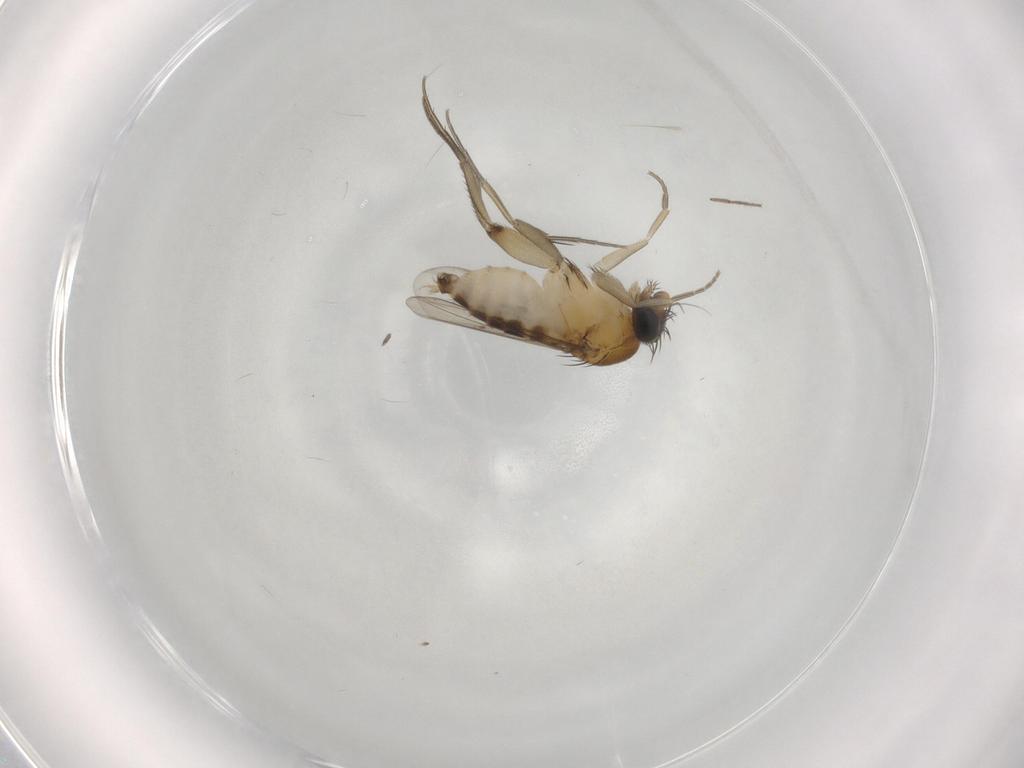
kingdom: Animalia
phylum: Arthropoda
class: Insecta
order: Diptera
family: Phoridae
